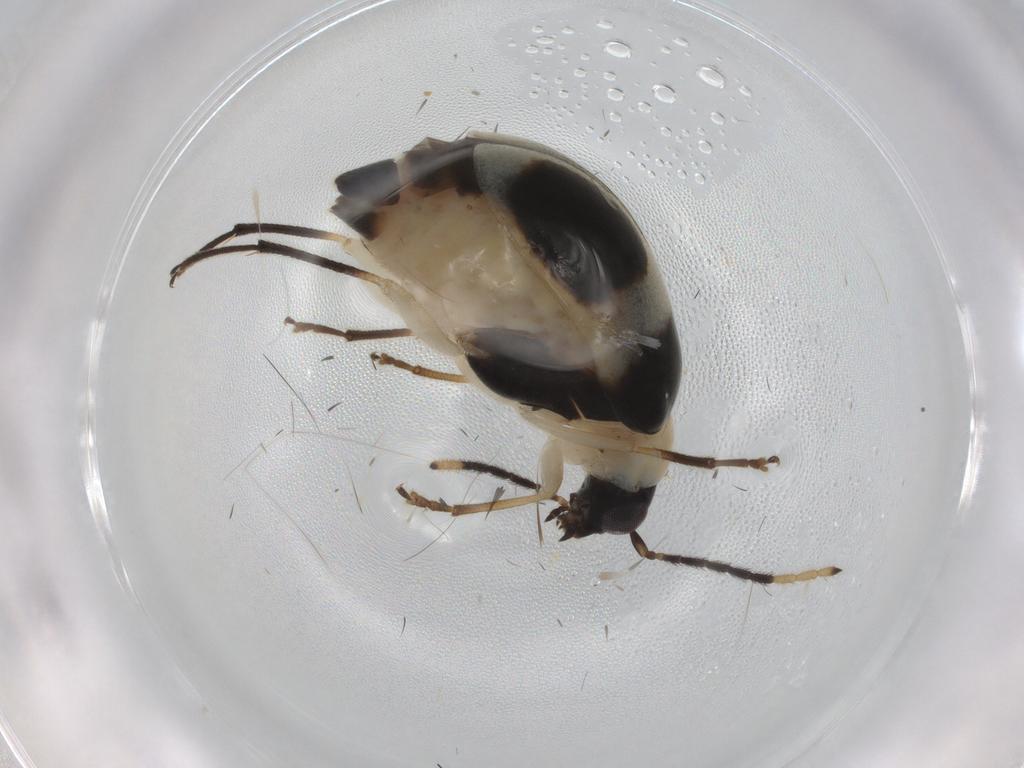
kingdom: Animalia
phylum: Arthropoda
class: Insecta
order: Coleoptera
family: Chrysomelidae
